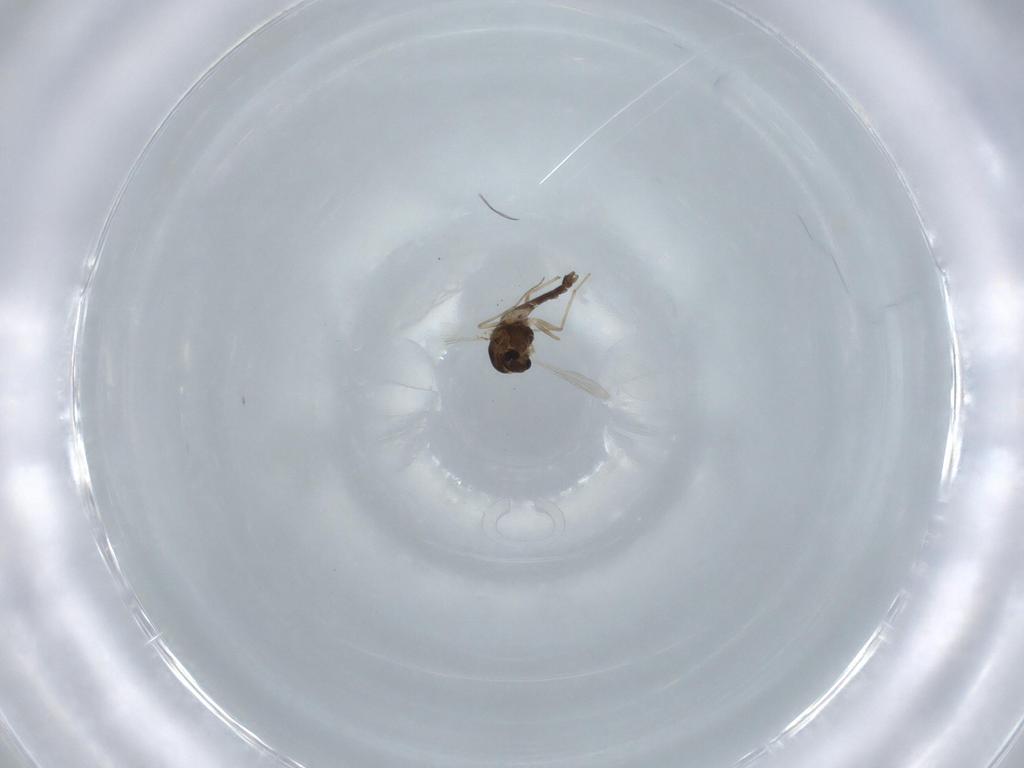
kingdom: Animalia
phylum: Arthropoda
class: Insecta
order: Diptera
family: Chironomidae
